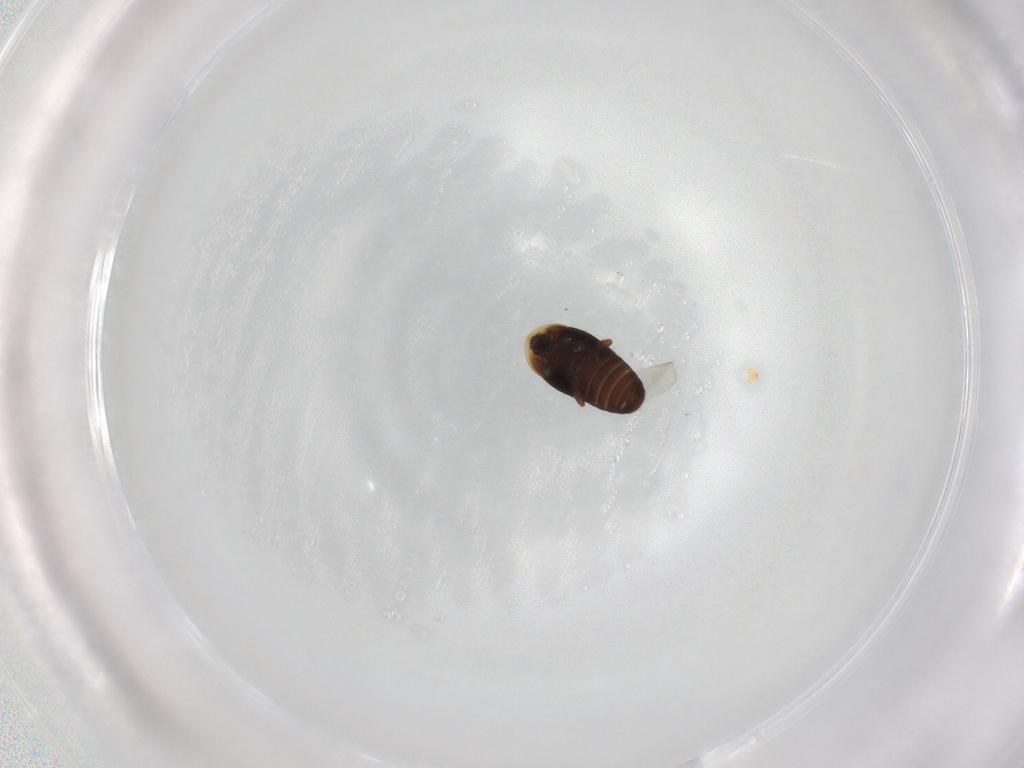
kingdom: Animalia
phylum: Arthropoda
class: Insecta
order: Coleoptera
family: Corylophidae
